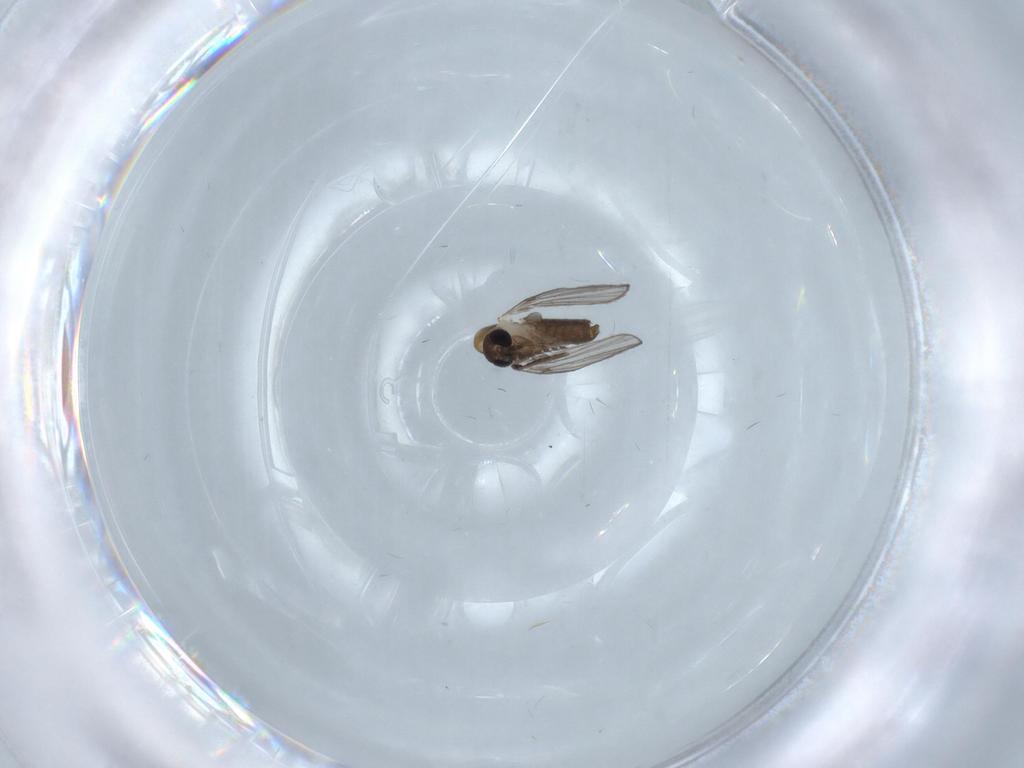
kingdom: Animalia
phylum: Arthropoda
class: Insecta
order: Diptera
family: Psychodidae
